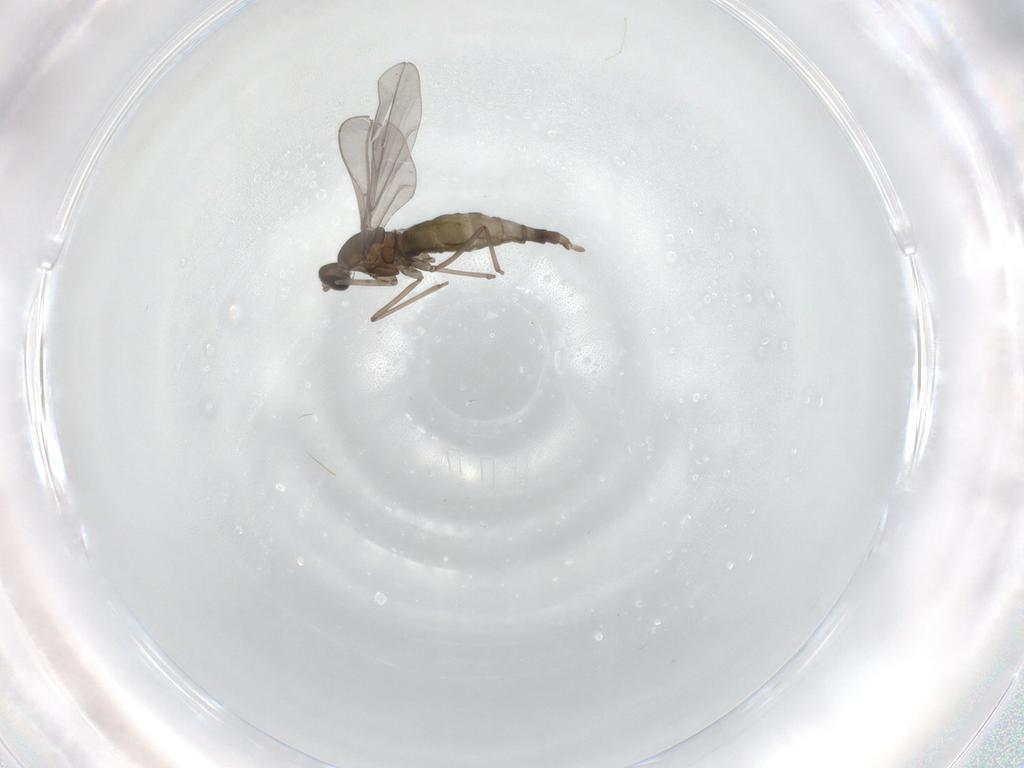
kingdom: Animalia
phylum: Arthropoda
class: Insecta
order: Diptera
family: Cecidomyiidae
